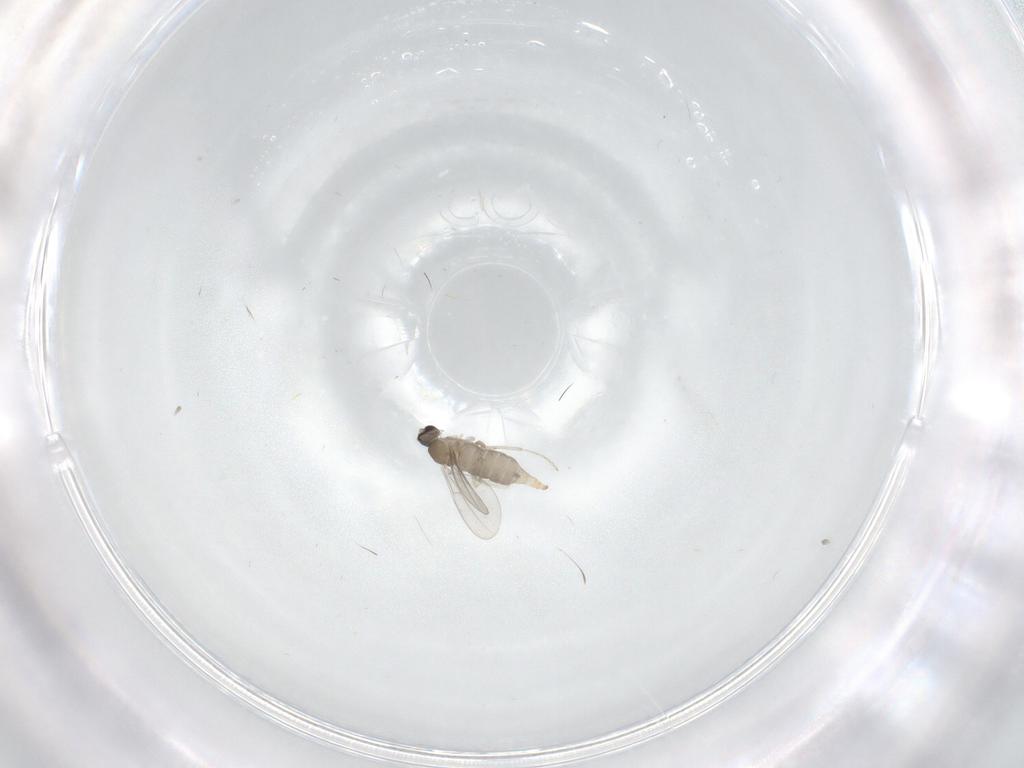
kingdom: Animalia
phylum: Arthropoda
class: Insecta
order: Diptera
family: Cecidomyiidae
